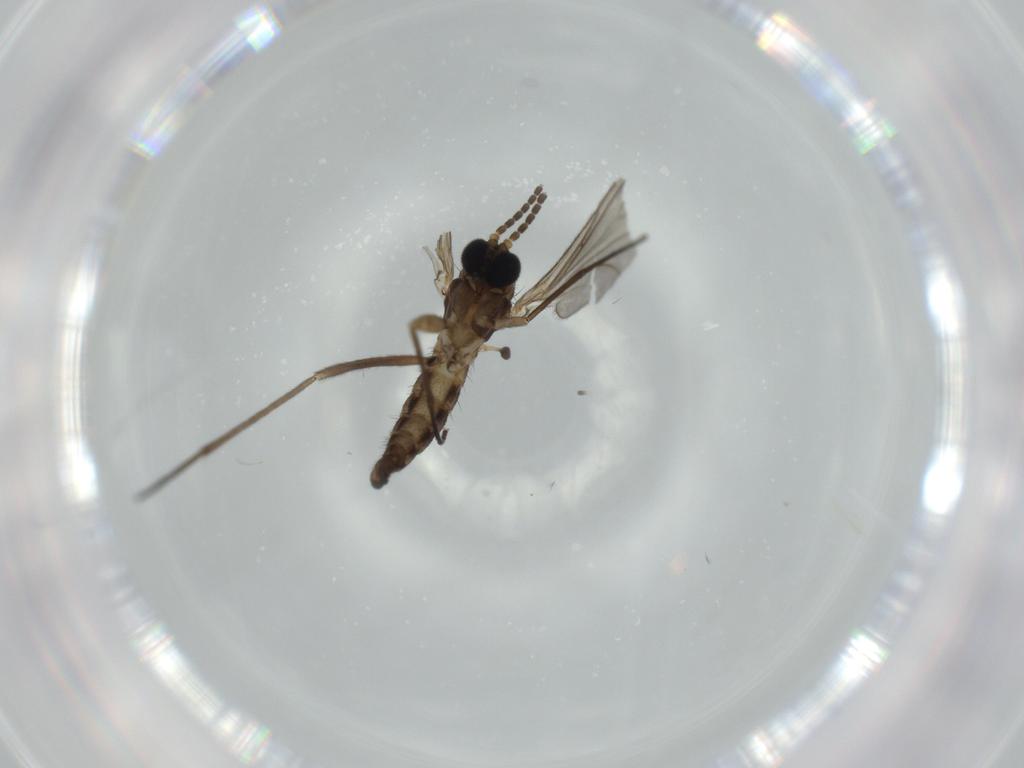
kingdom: Animalia
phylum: Arthropoda
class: Insecta
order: Diptera
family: Sciaridae
